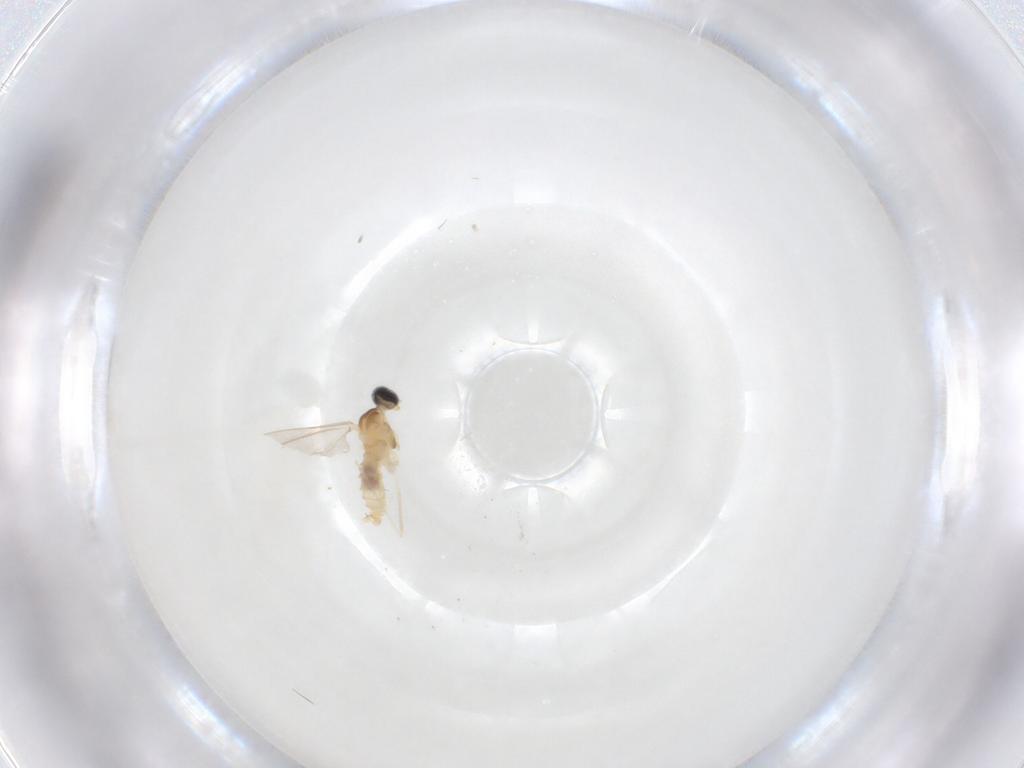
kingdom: Animalia
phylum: Arthropoda
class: Insecta
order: Diptera
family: Cecidomyiidae
